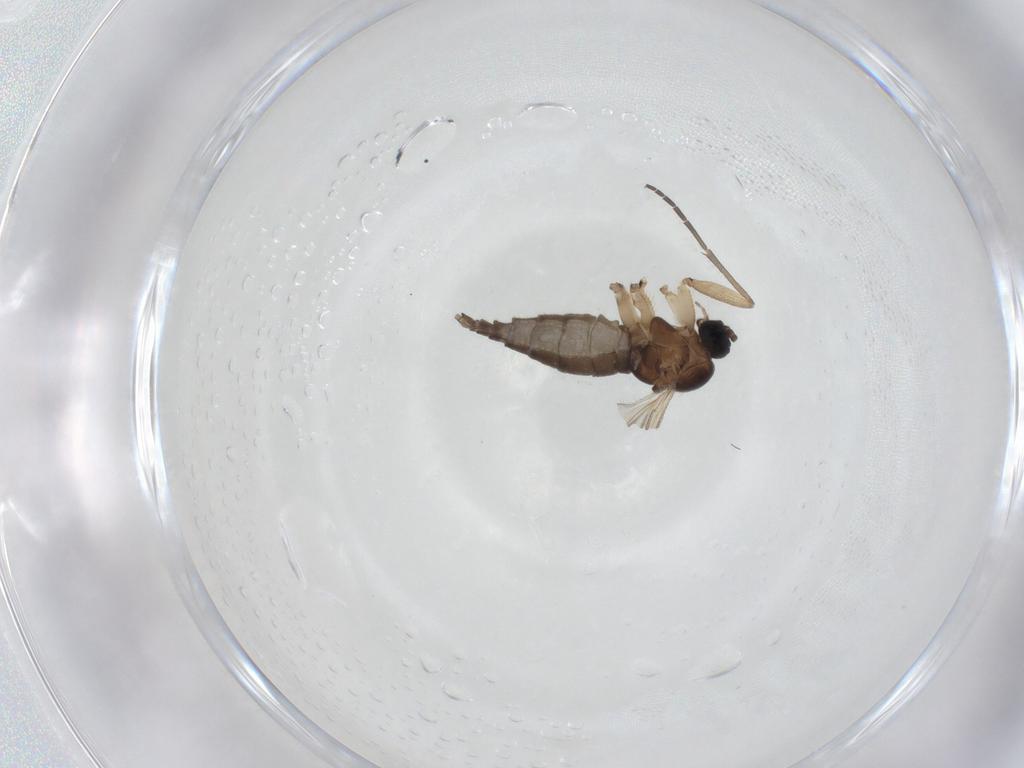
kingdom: Animalia
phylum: Arthropoda
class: Insecta
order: Diptera
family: Sciaridae
